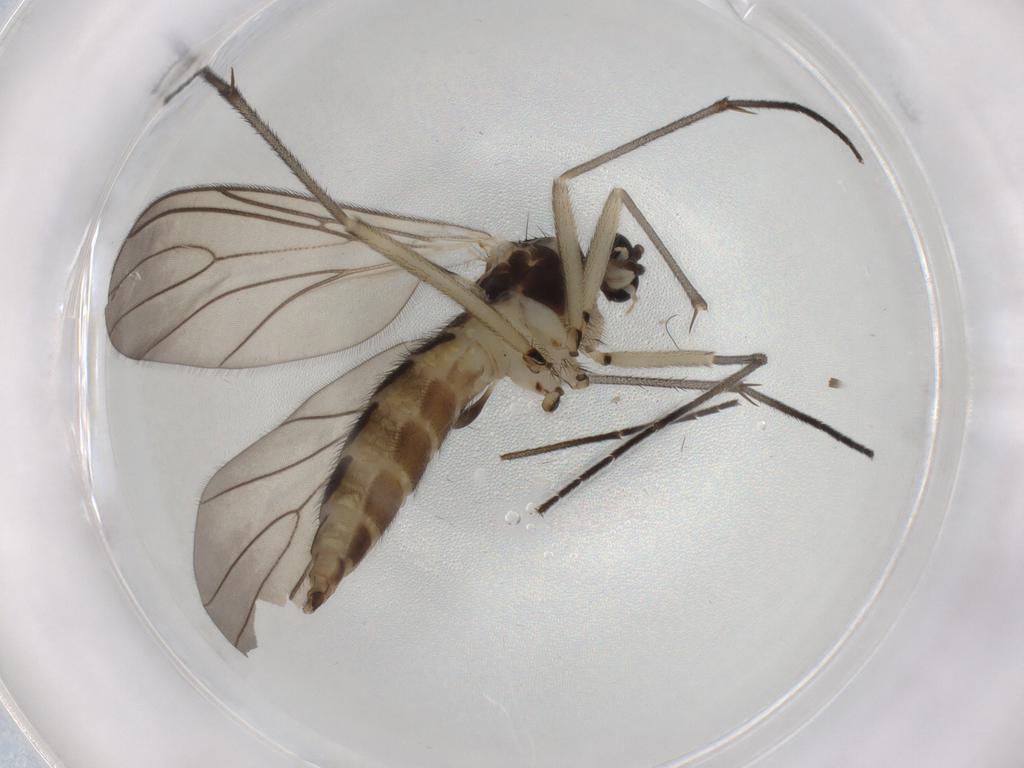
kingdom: Animalia
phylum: Arthropoda
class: Insecta
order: Diptera
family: Sciaridae
